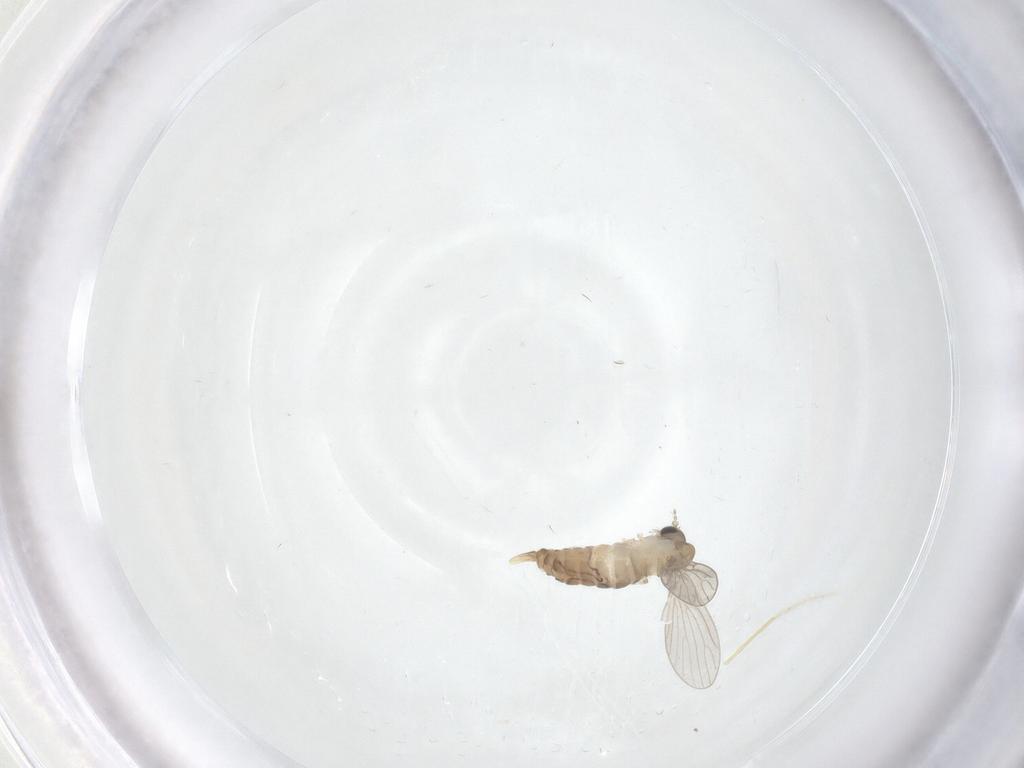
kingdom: Animalia
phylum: Arthropoda
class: Insecta
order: Diptera
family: Psychodidae
